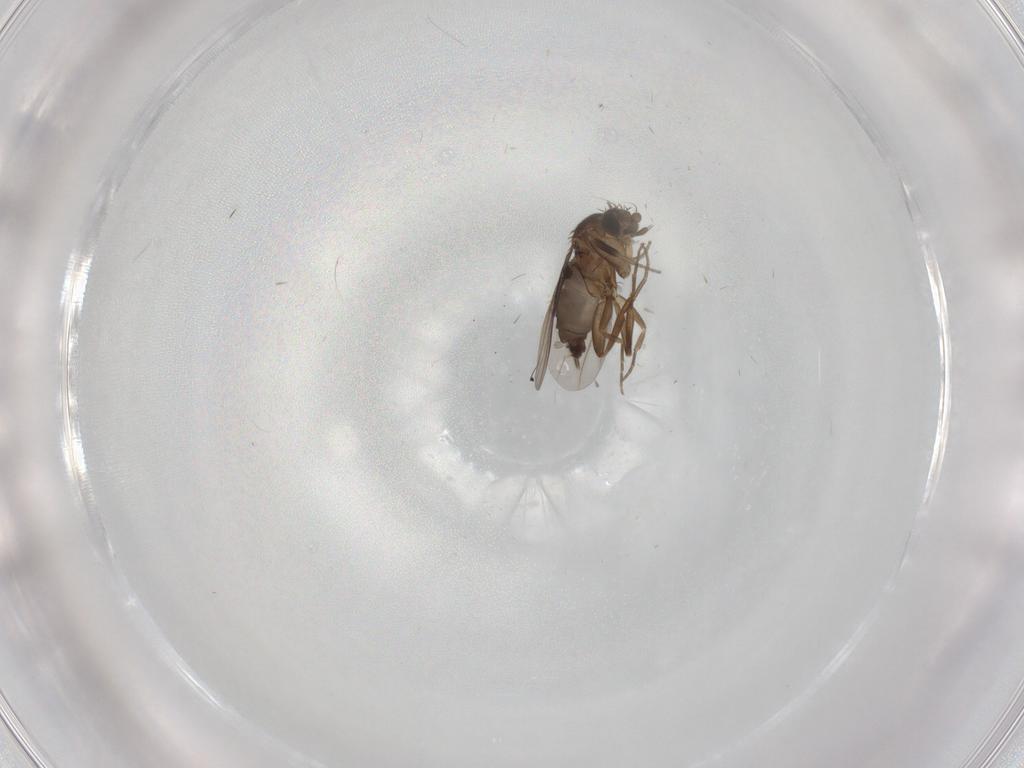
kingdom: Animalia
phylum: Arthropoda
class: Insecta
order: Diptera
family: Phoridae
